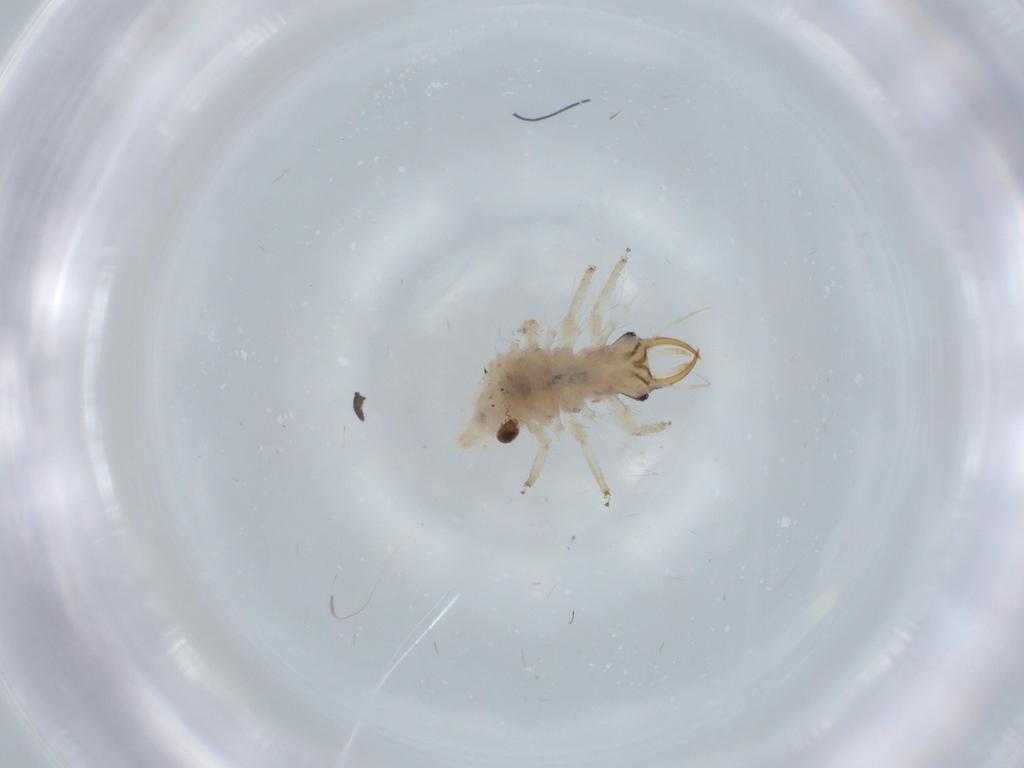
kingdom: Animalia
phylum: Arthropoda
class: Insecta
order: Neuroptera
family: Chrysopidae
